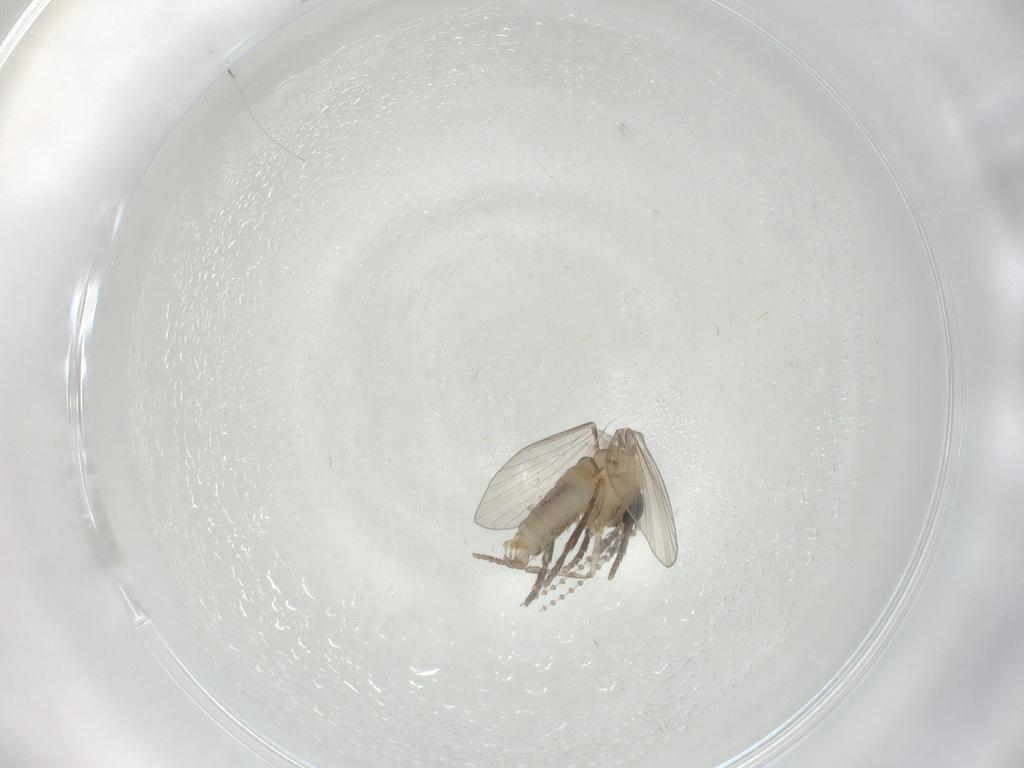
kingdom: Animalia
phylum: Arthropoda
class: Insecta
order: Diptera
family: Psychodidae
